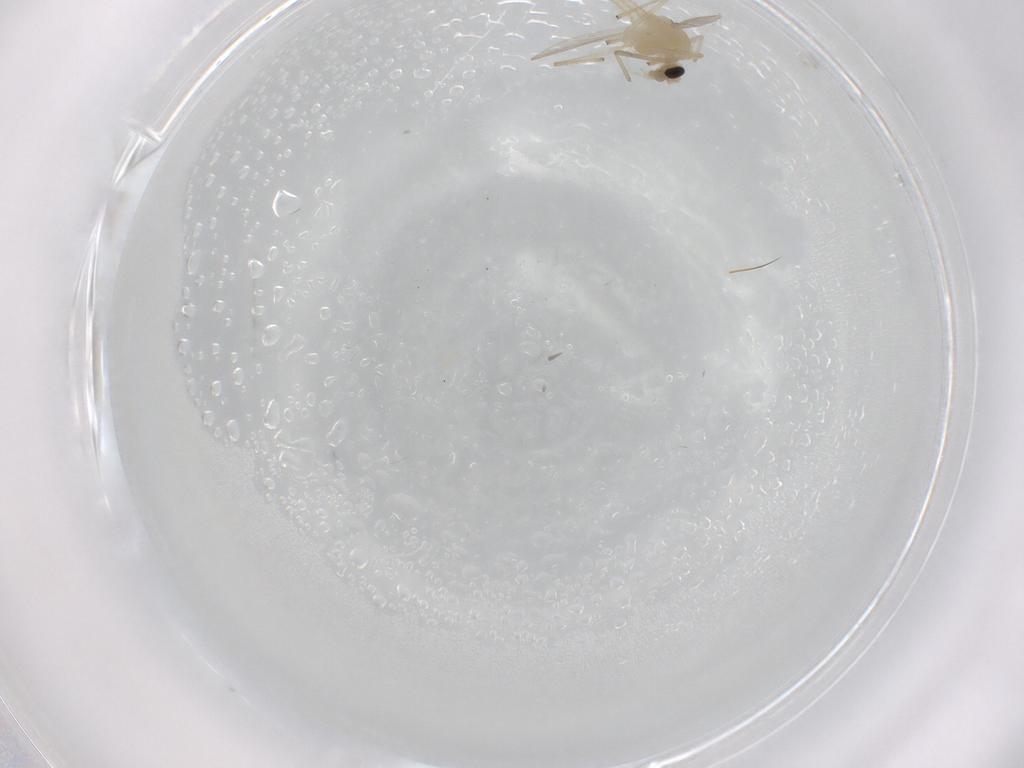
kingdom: Animalia
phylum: Arthropoda
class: Insecta
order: Diptera
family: Chironomidae
